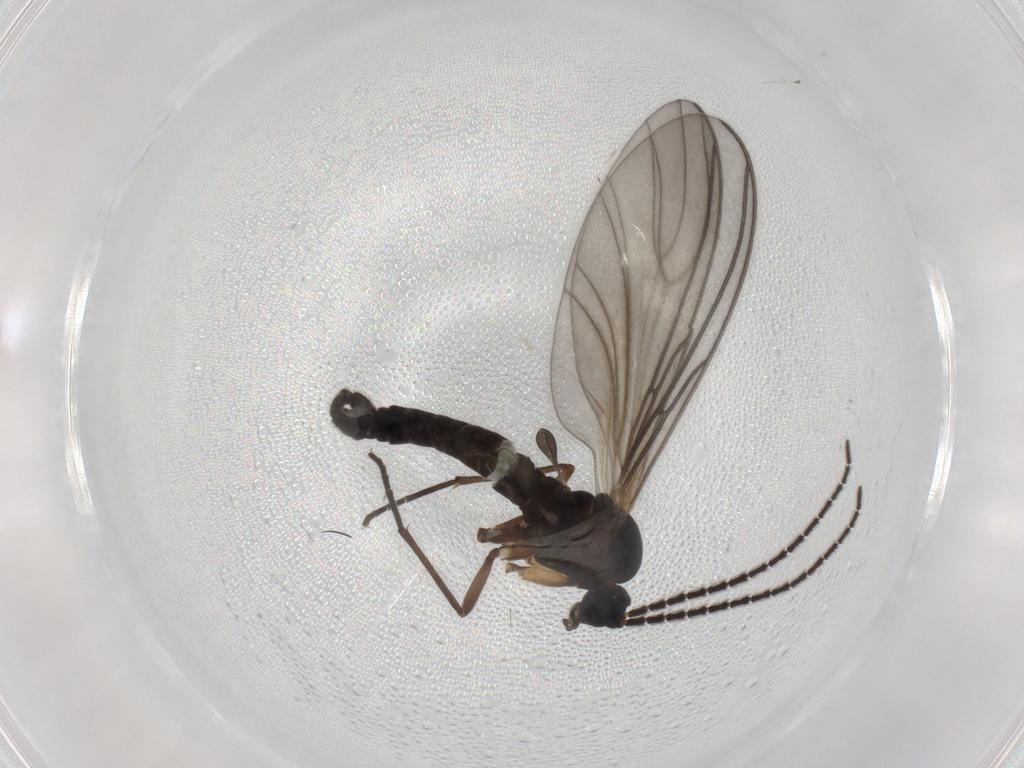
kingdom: Animalia
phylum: Arthropoda
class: Insecta
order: Diptera
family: Sciaridae
